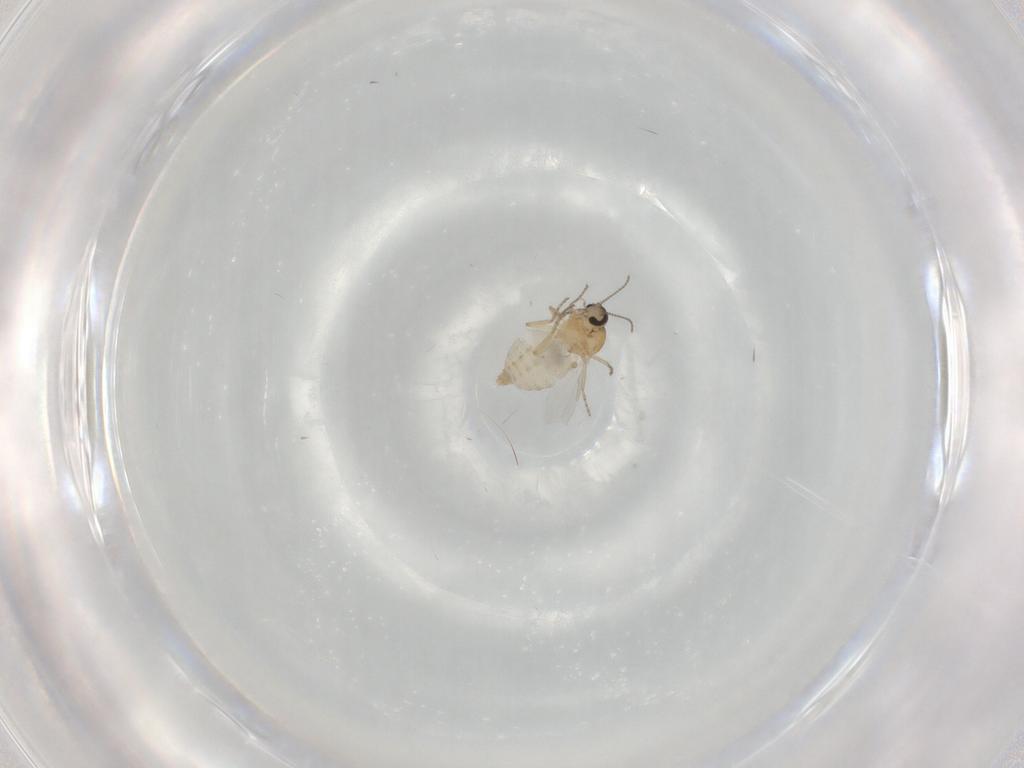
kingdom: Animalia
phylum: Arthropoda
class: Insecta
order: Diptera
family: Ceratopogonidae
